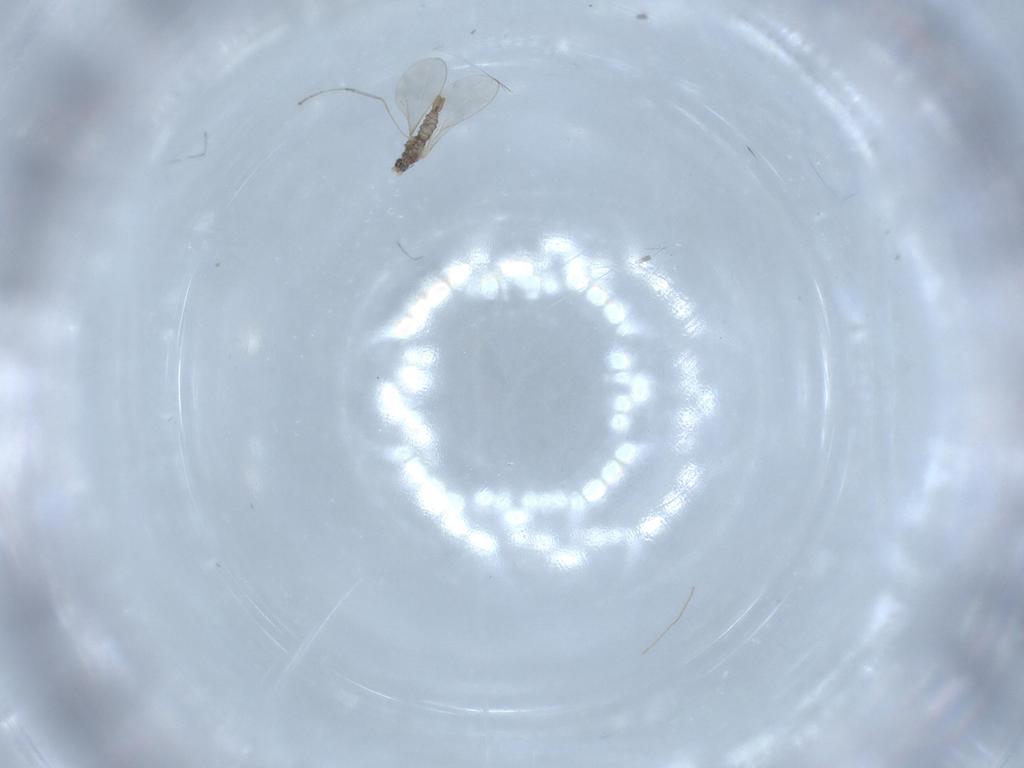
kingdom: Animalia
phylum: Arthropoda
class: Insecta
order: Diptera
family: Cecidomyiidae
